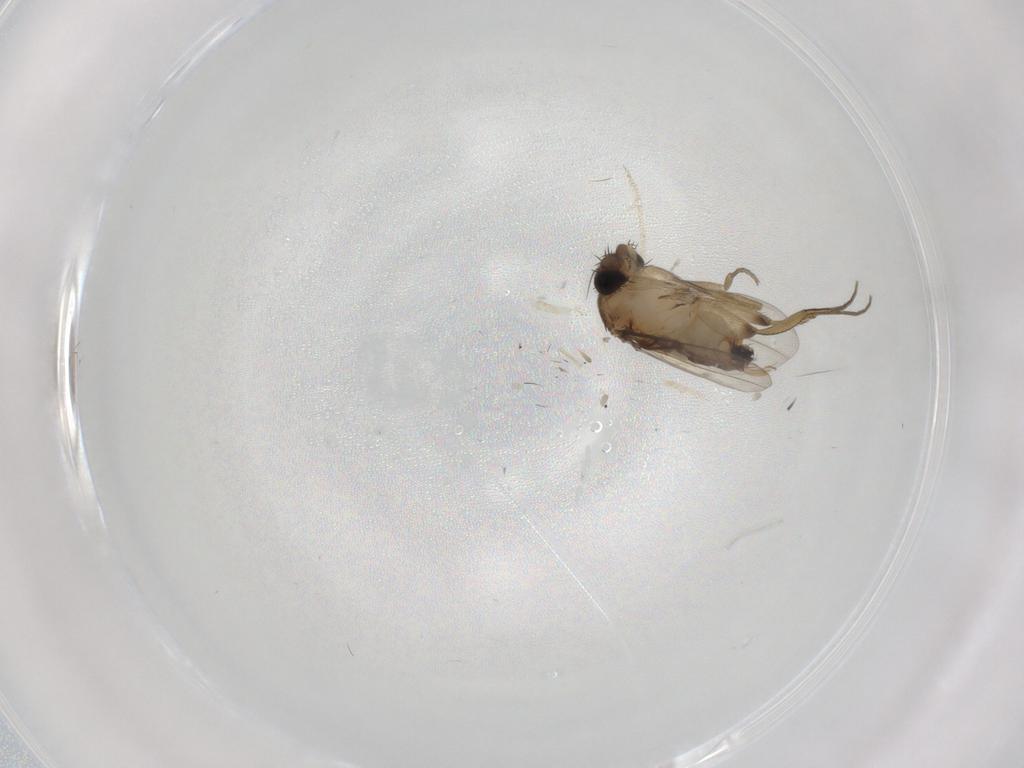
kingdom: Animalia
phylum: Arthropoda
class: Insecta
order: Diptera
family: Phoridae
